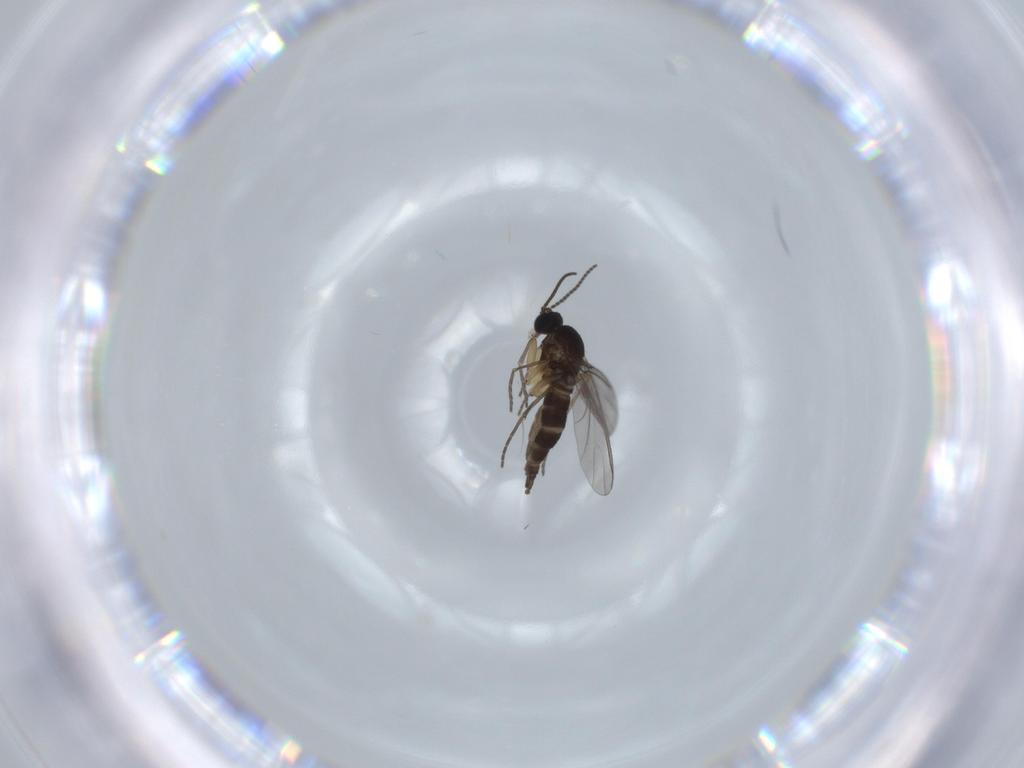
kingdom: Animalia
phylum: Arthropoda
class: Insecta
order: Diptera
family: Sciaridae
